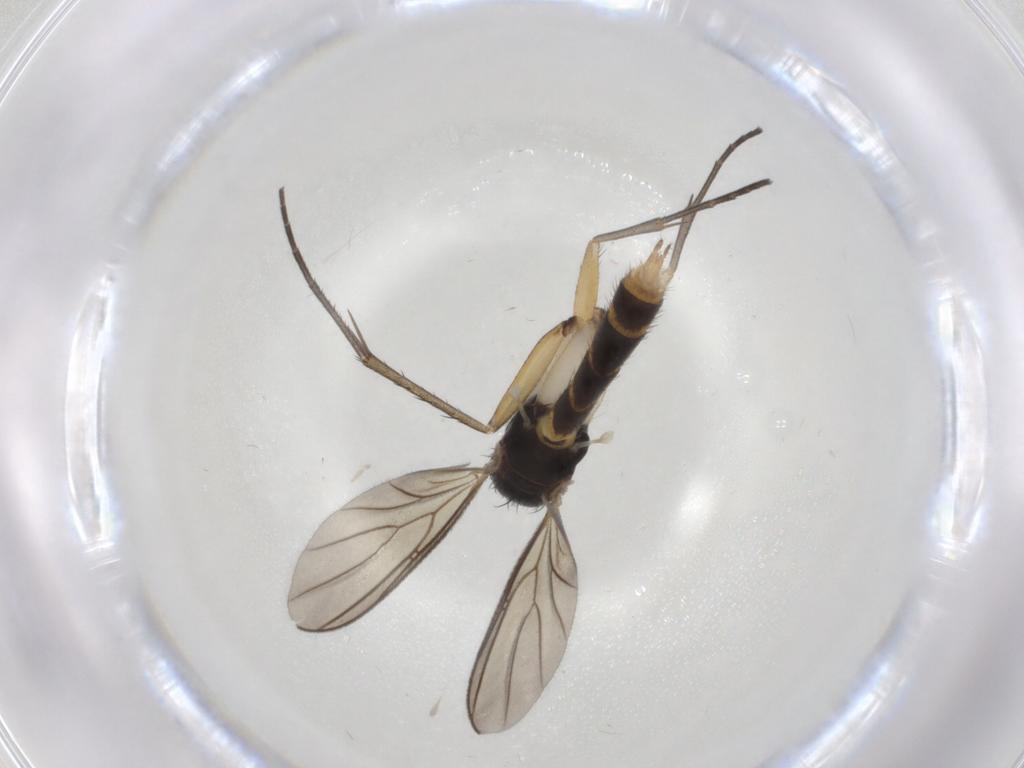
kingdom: Animalia
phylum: Arthropoda
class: Insecta
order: Diptera
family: Mycetophilidae
